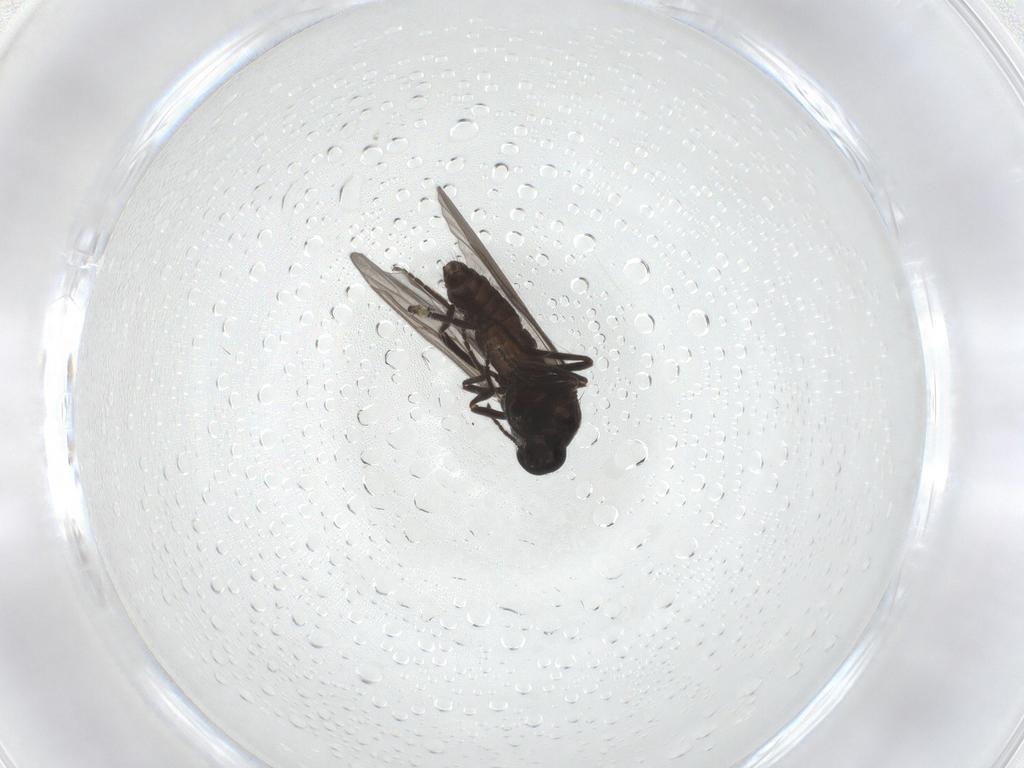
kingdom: Animalia
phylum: Arthropoda
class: Insecta
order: Diptera
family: Ceratopogonidae
